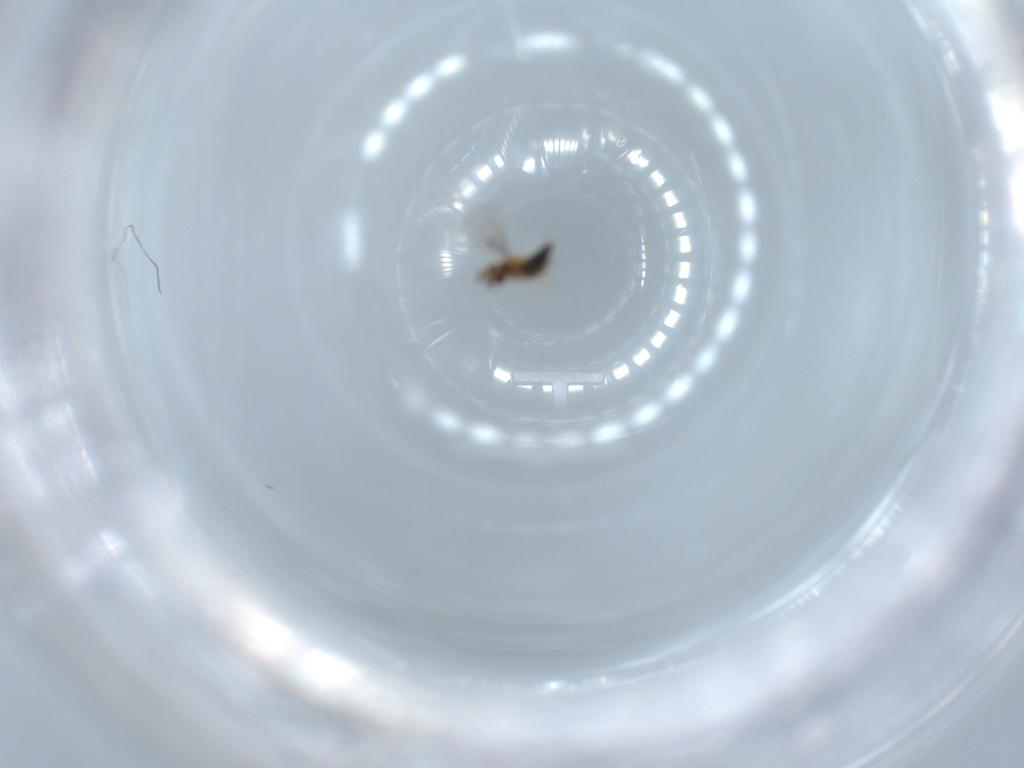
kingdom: Animalia
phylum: Arthropoda
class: Insecta
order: Hymenoptera
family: Trichogrammatidae
